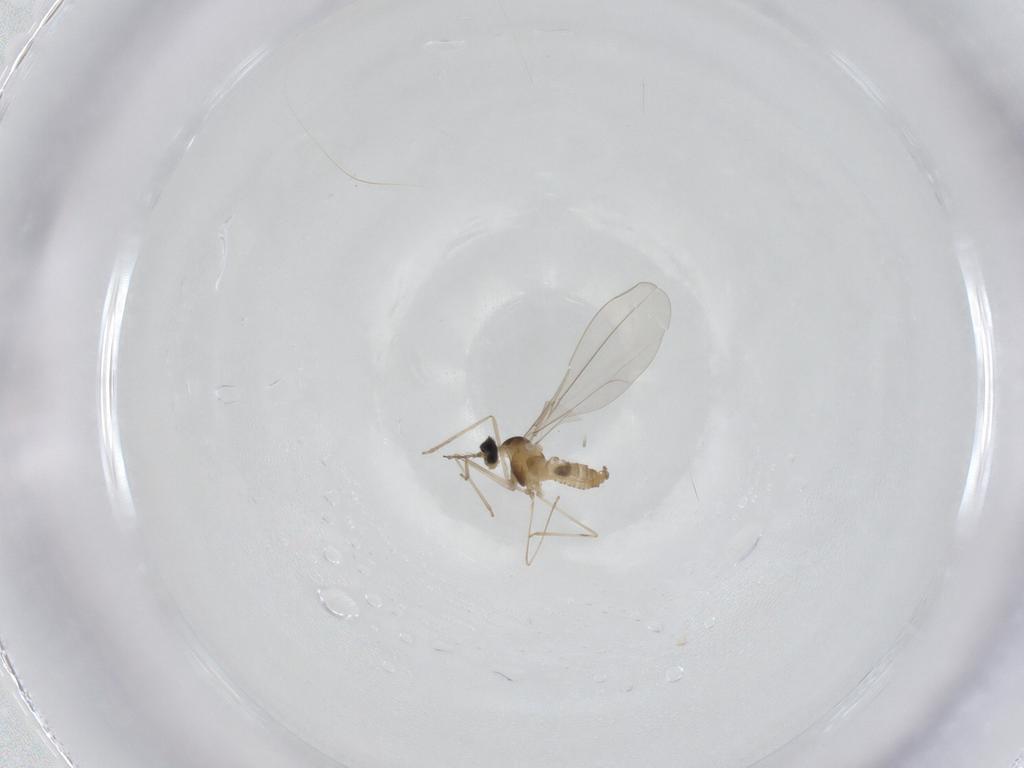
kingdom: Animalia
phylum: Arthropoda
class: Insecta
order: Diptera
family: Cecidomyiidae
